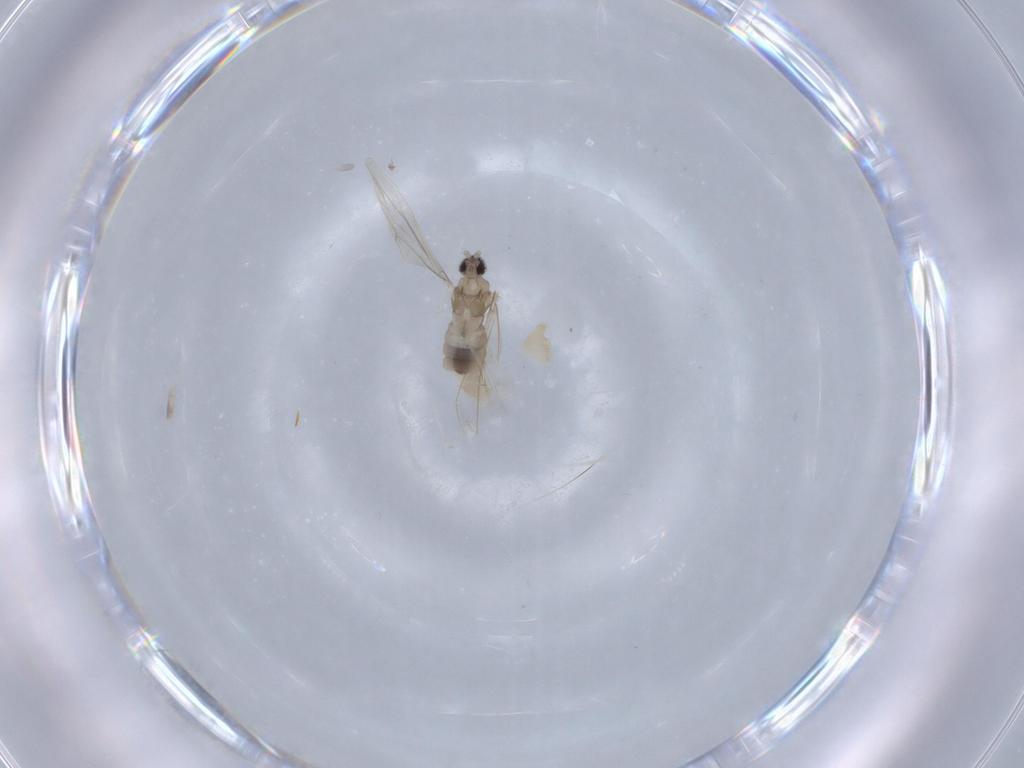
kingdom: Animalia
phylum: Arthropoda
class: Insecta
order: Diptera
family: Cecidomyiidae
